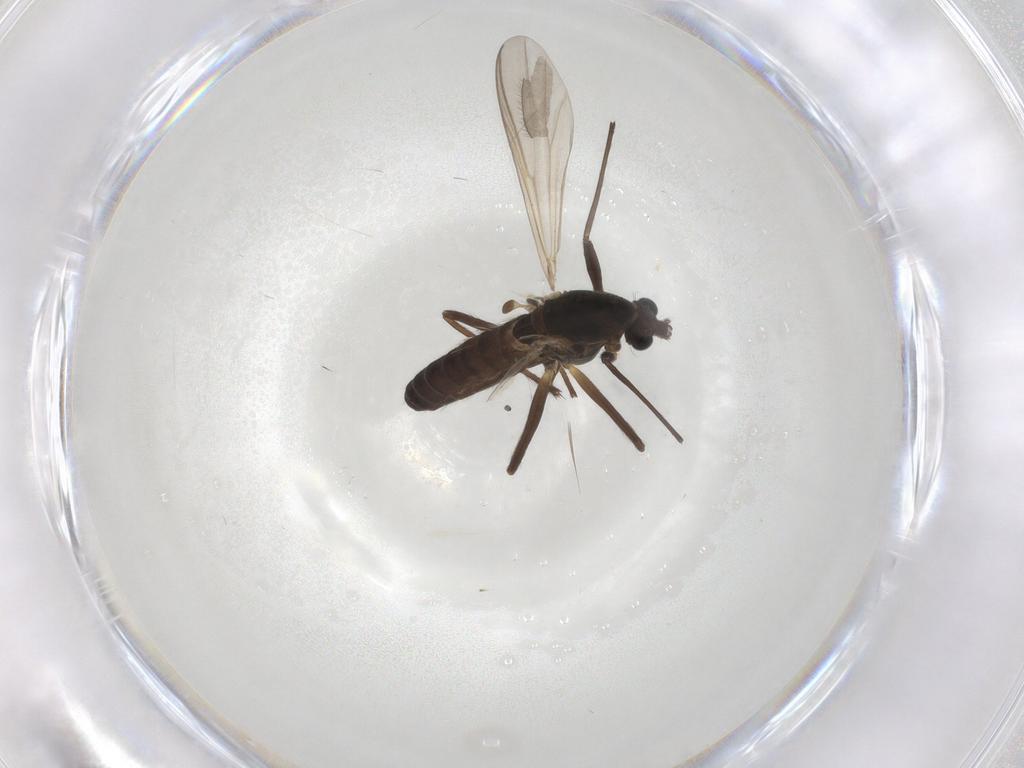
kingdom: Animalia
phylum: Arthropoda
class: Insecta
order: Diptera
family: Chironomidae
